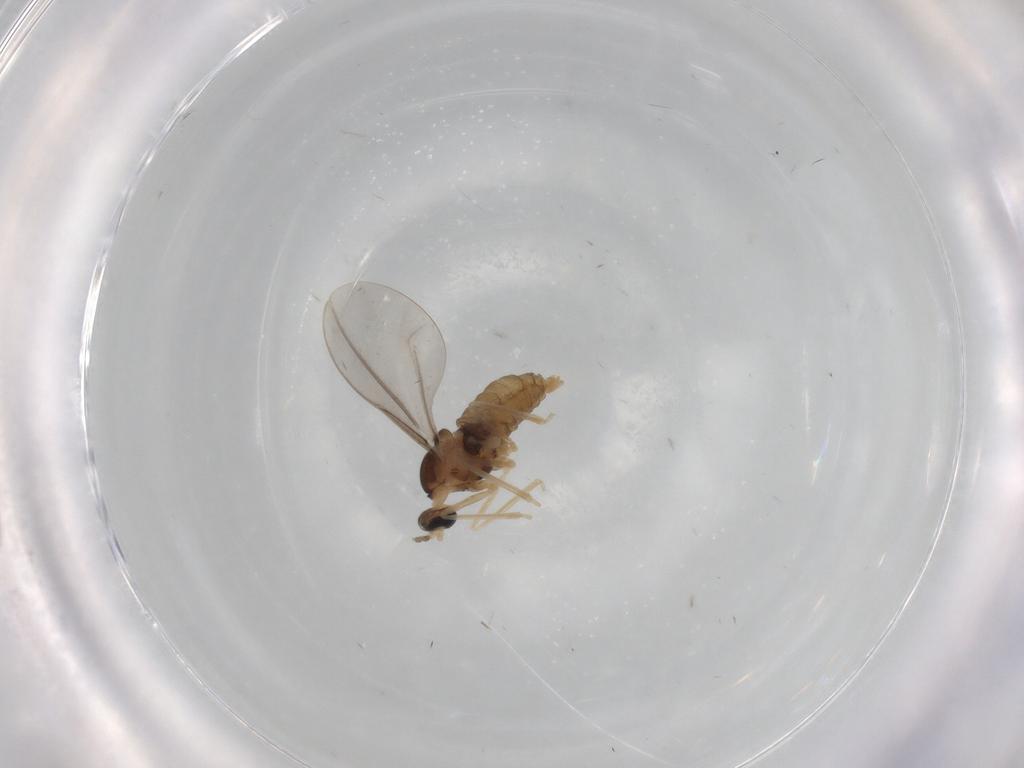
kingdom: Animalia
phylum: Arthropoda
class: Insecta
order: Diptera
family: Cecidomyiidae
